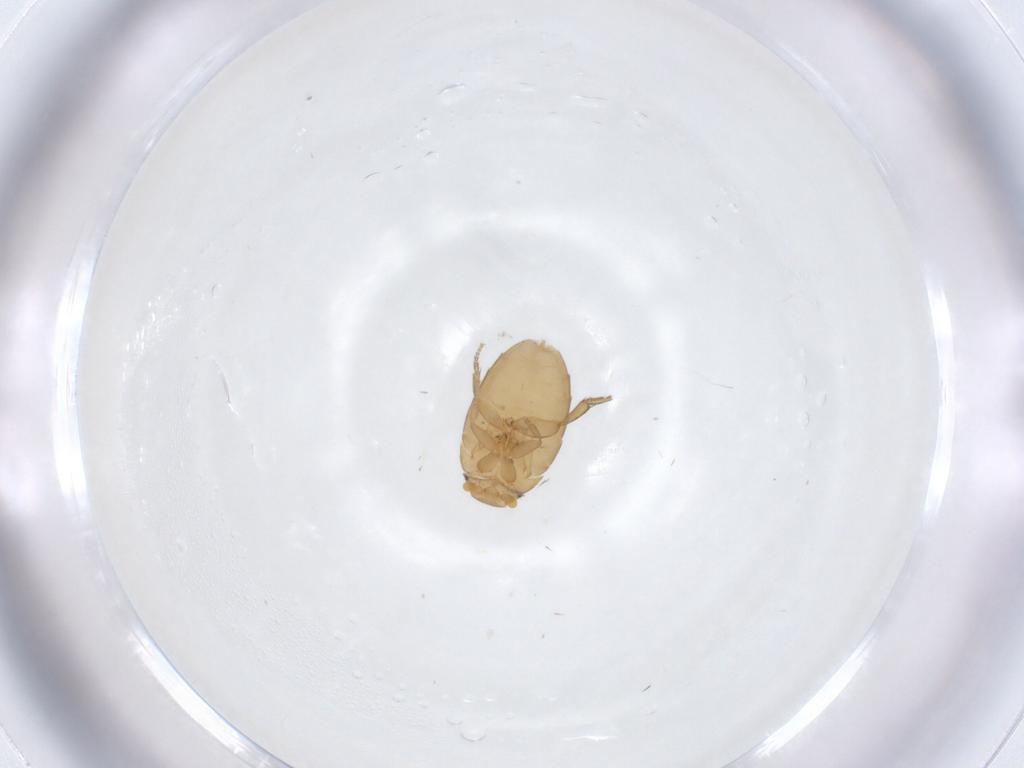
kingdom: Animalia
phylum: Arthropoda
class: Insecta
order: Diptera
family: Phoridae
